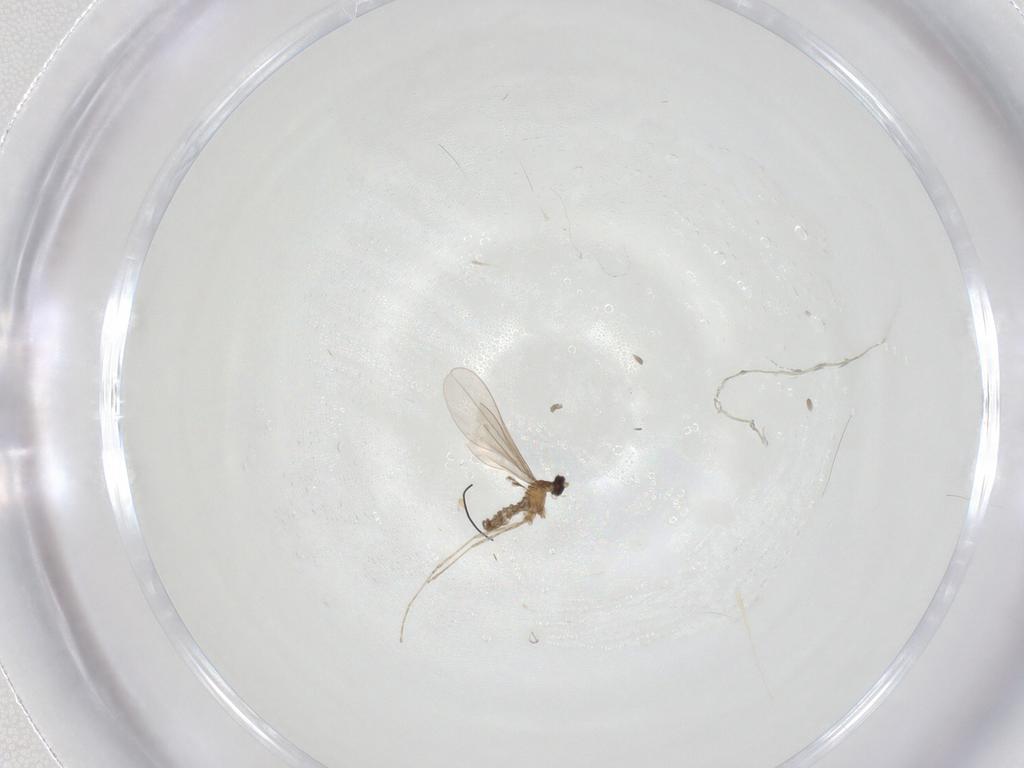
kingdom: Animalia
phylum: Arthropoda
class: Insecta
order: Diptera
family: Cecidomyiidae
